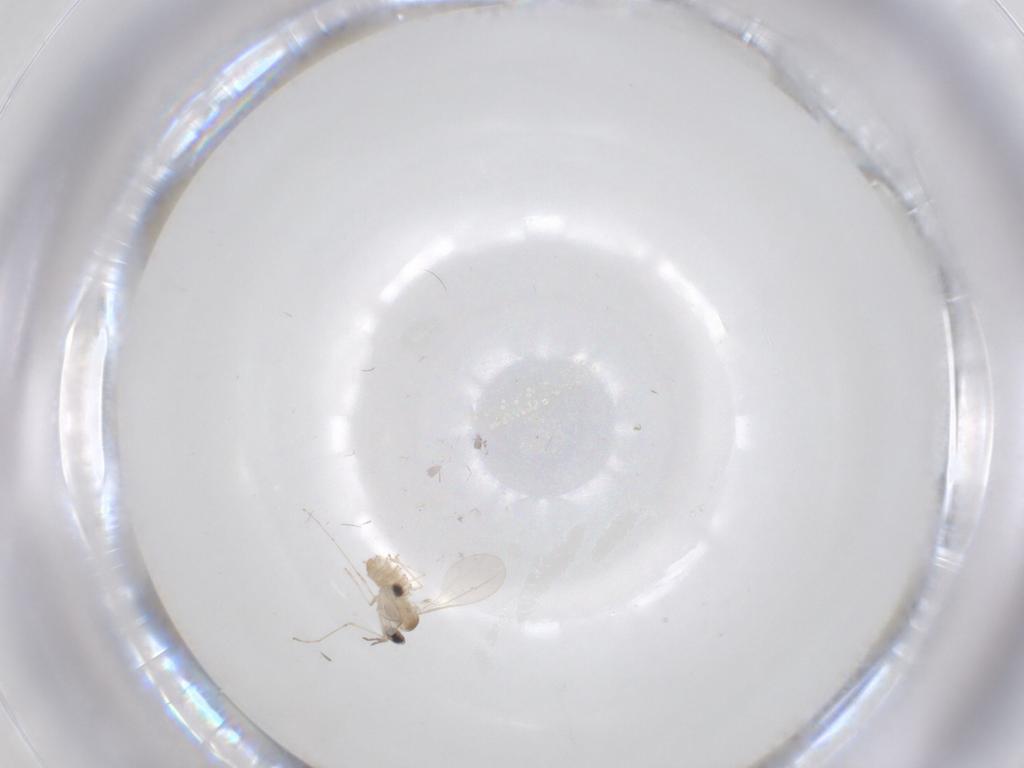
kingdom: Animalia
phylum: Arthropoda
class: Insecta
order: Diptera
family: Cecidomyiidae
